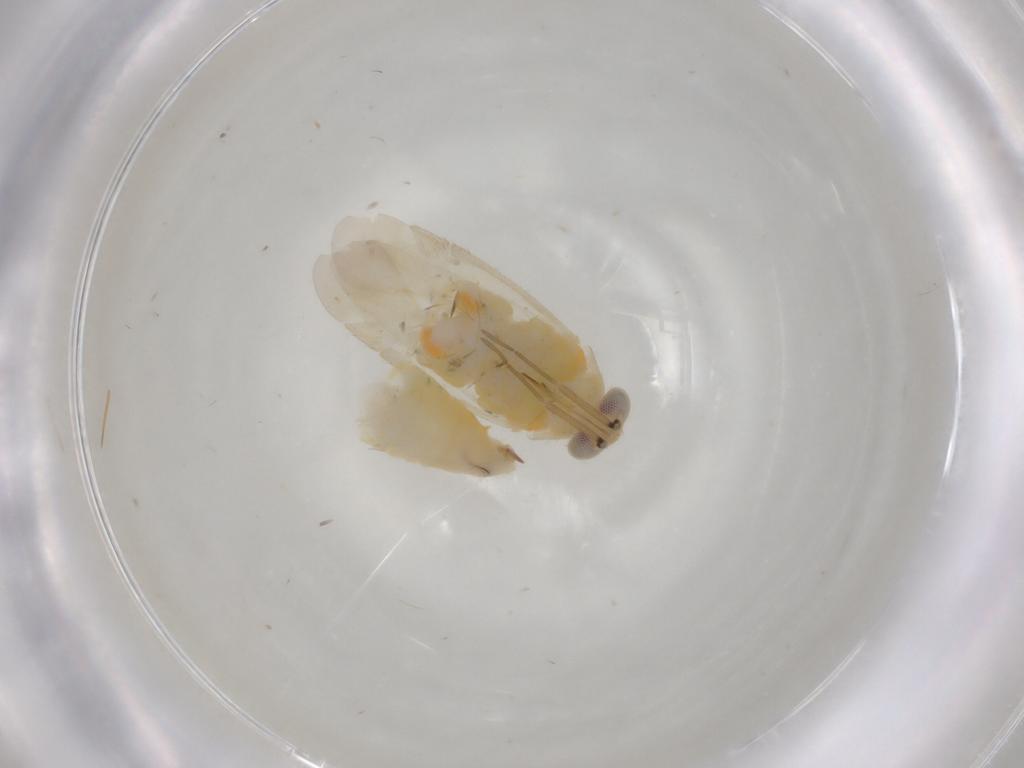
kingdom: Animalia
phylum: Arthropoda
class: Insecta
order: Hemiptera
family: Miridae
